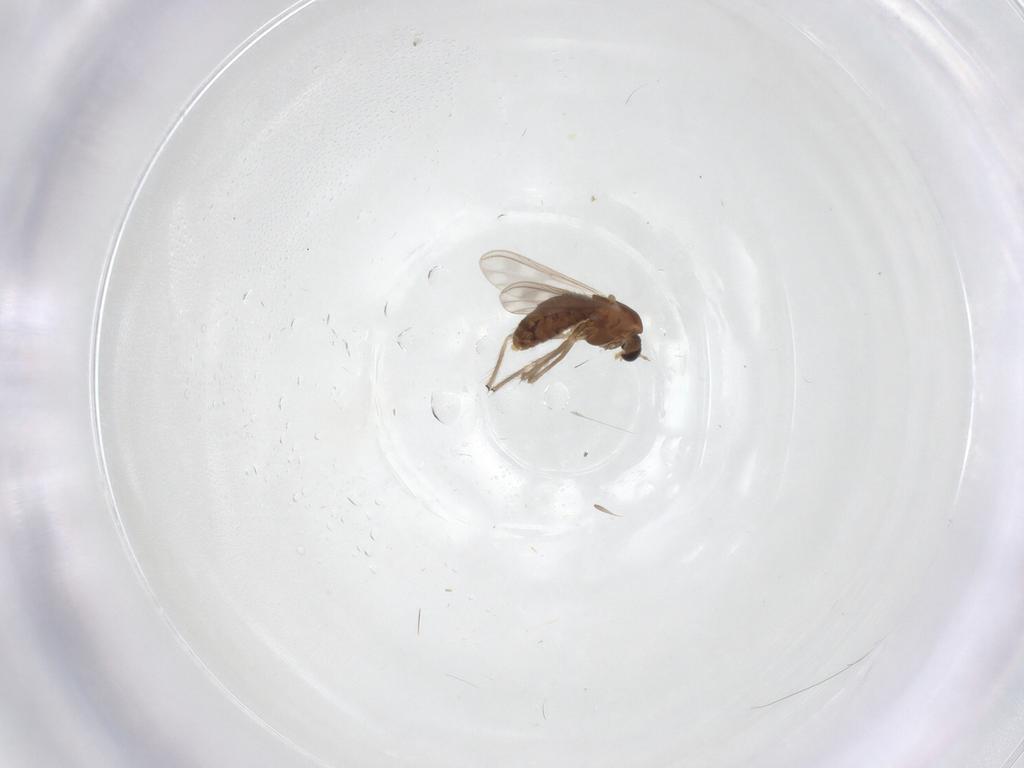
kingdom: Animalia
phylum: Arthropoda
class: Insecta
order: Diptera
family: Chironomidae
